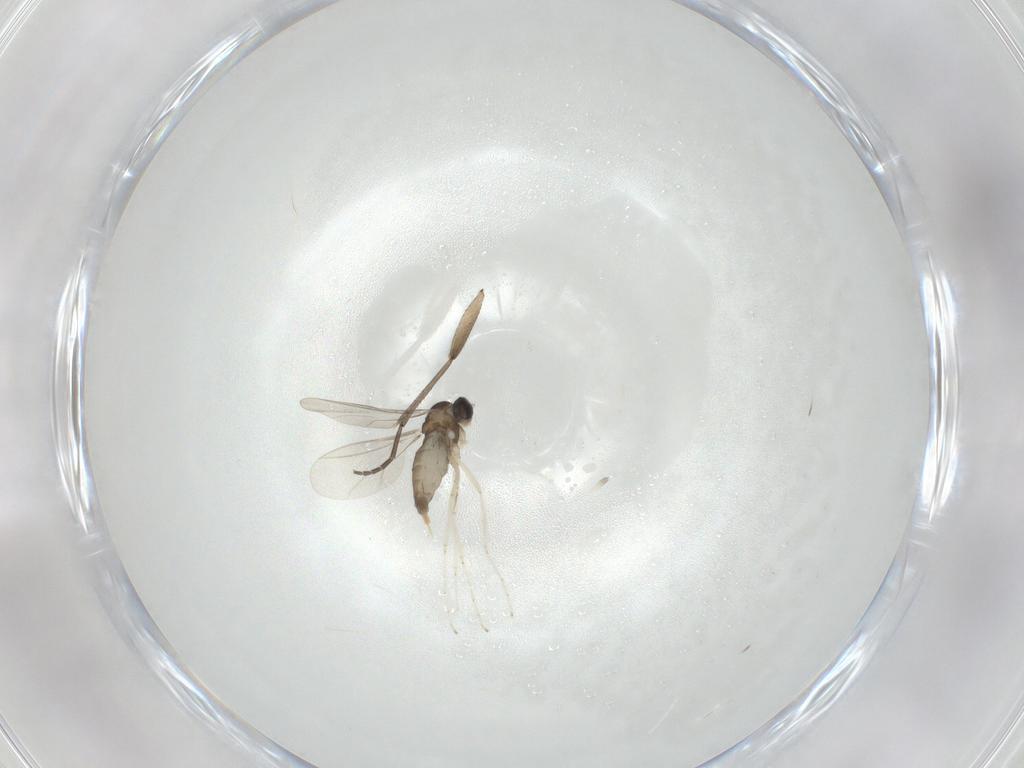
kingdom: Animalia
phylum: Arthropoda
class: Insecta
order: Diptera
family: Cecidomyiidae
